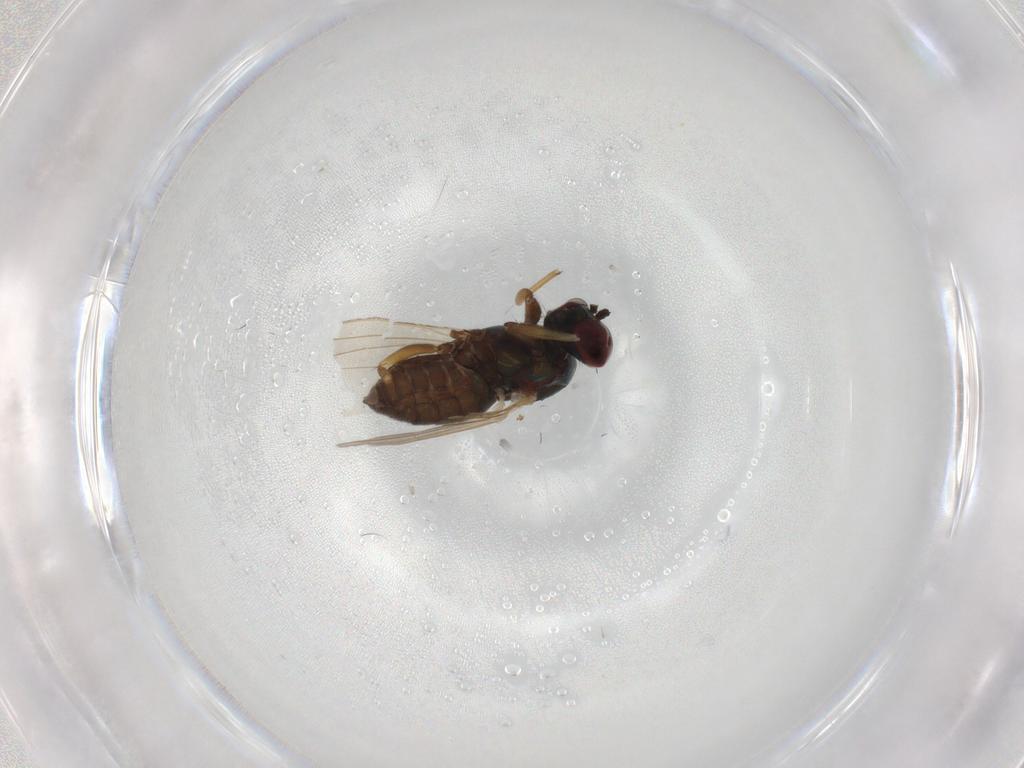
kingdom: Animalia
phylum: Arthropoda
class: Insecta
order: Diptera
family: Dolichopodidae
